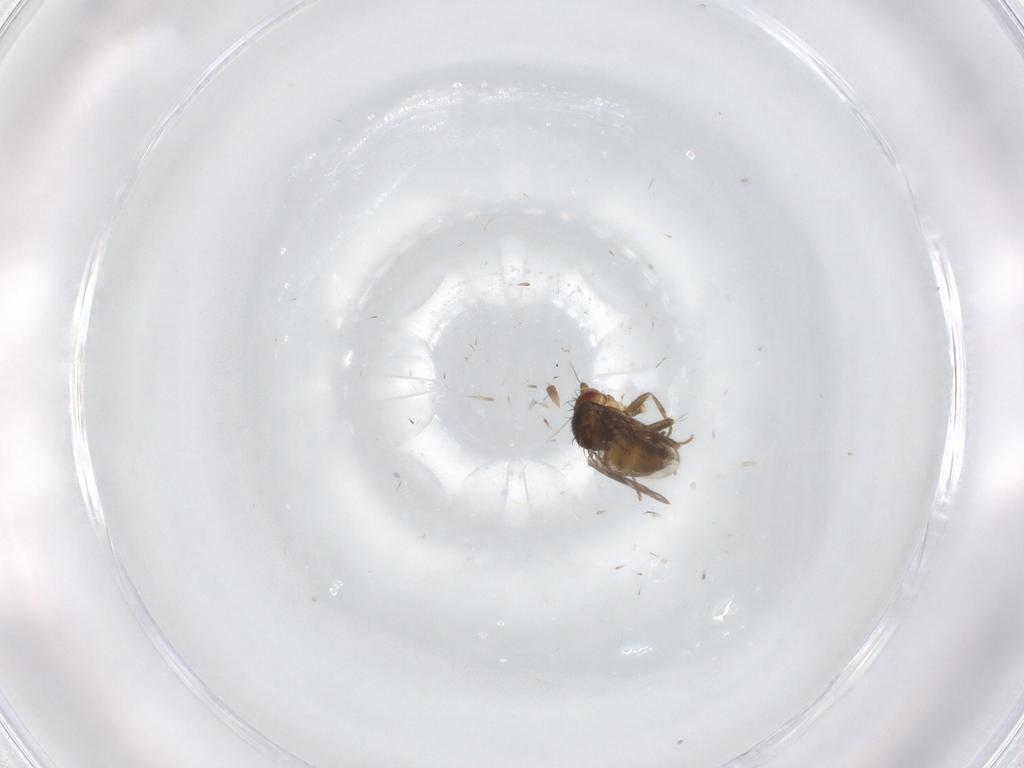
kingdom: Animalia
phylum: Arthropoda
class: Insecta
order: Diptera
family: Sphaeroceridae
